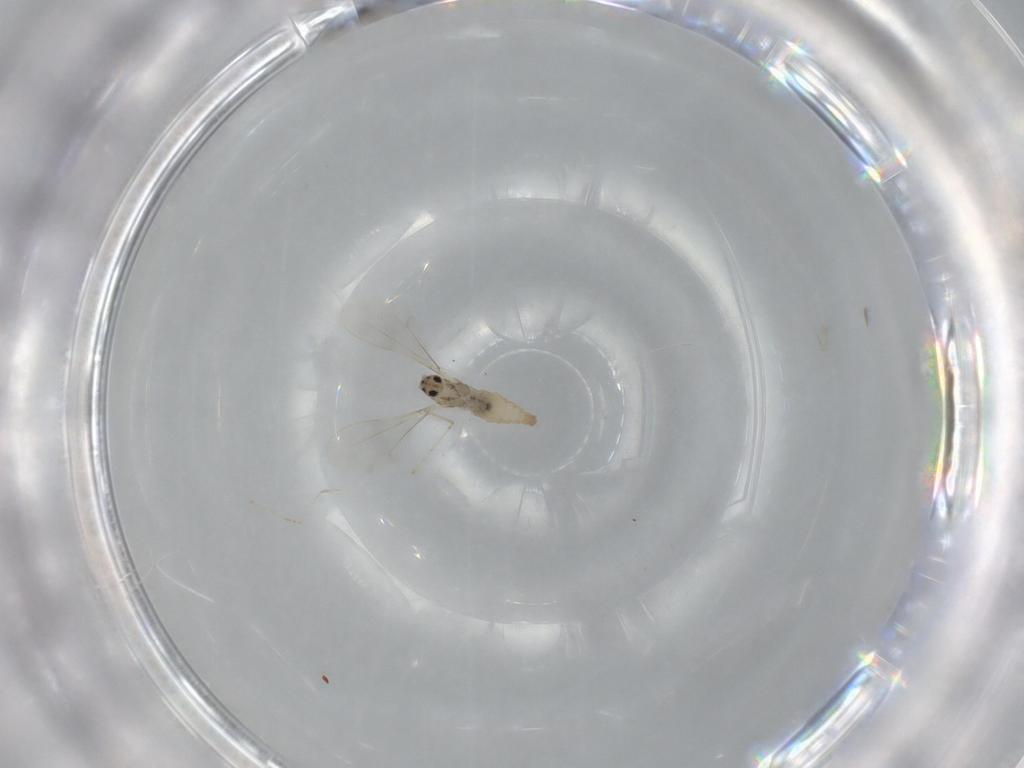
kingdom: Animalia
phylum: Arthropoda
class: Insecta
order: Diptera
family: Cecidomyiidae
